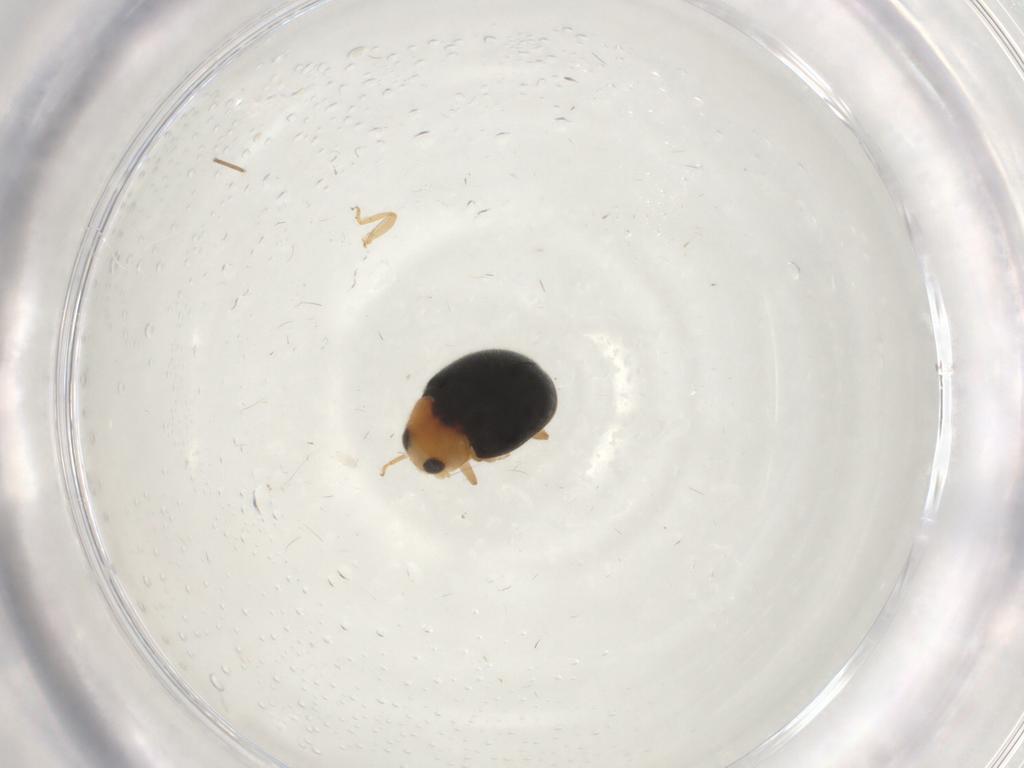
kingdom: Animalia
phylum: Arthropoda
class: Insecta
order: Coleoptera
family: Coccinellidae
